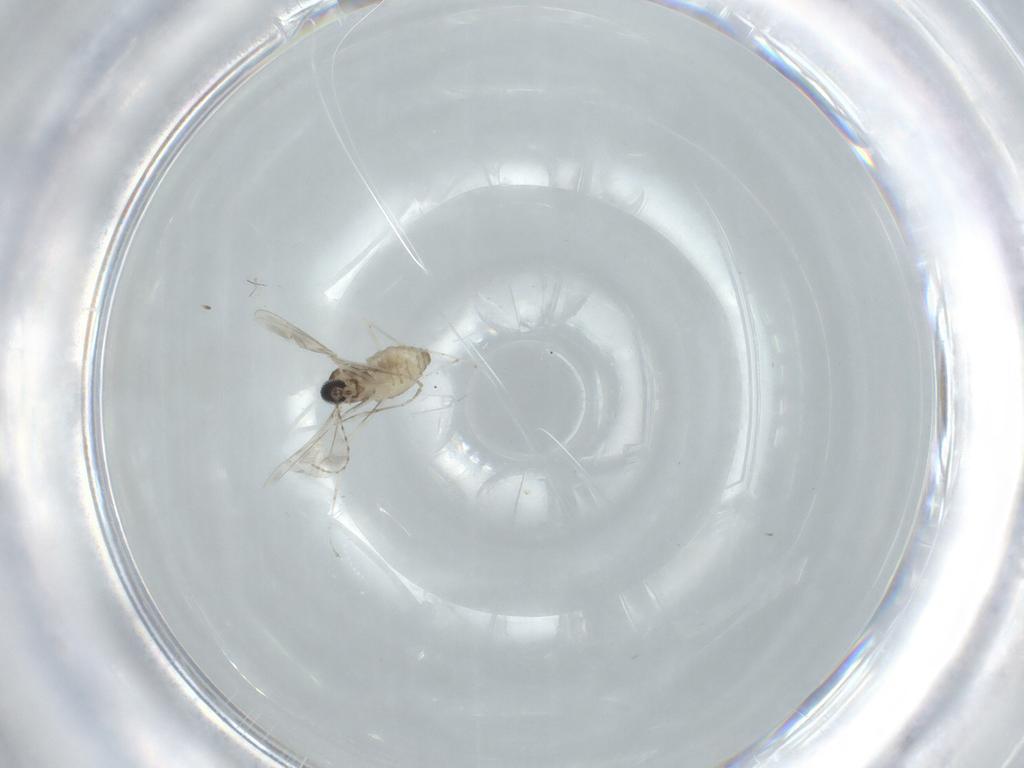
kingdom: Animalia
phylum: Arthropoda
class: Insecta
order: Diptera
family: Cecidomyiidae
